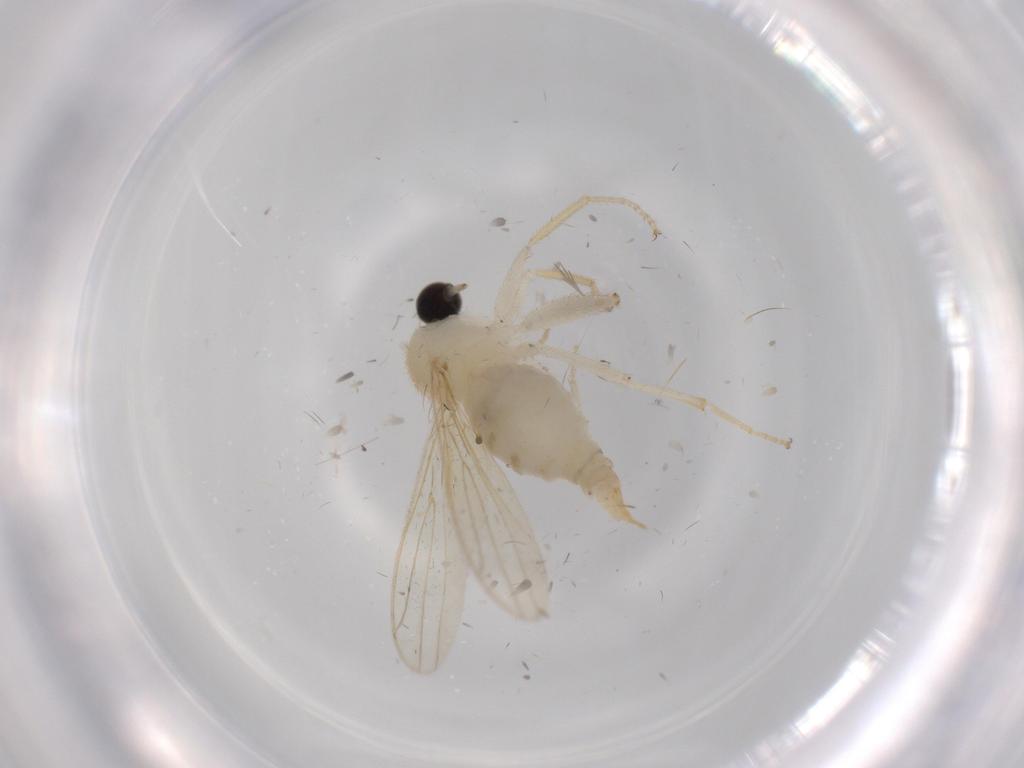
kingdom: Animalia
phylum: Arthropoda
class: Insecta
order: Diptera
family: Hybotidae
